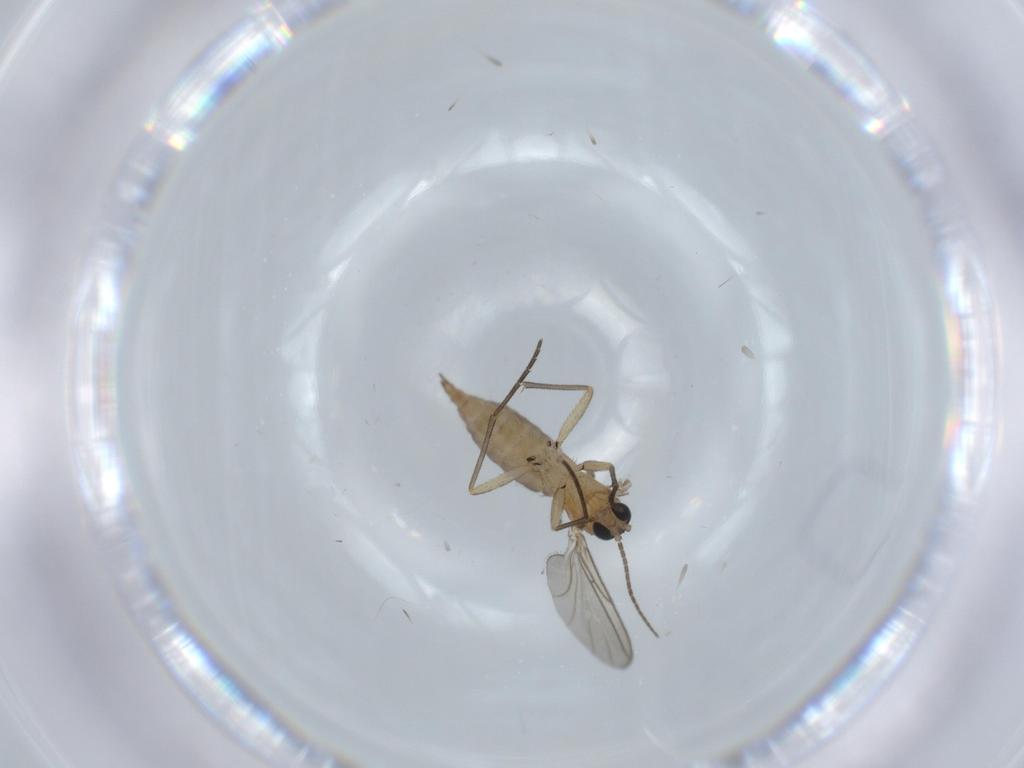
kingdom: Animalia
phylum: Arthropoda
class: Insecta
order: Diptera
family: Sciaridae
